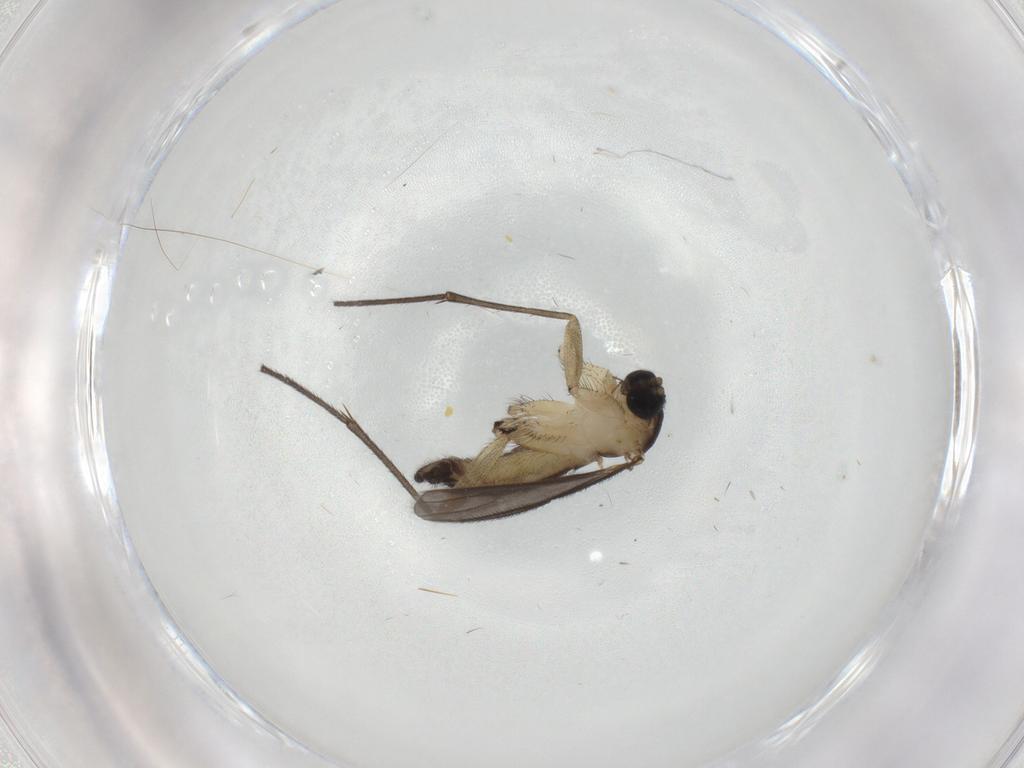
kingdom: Animalia
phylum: Arthropoda
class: Insecta
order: Diptera
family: Sciaridae
